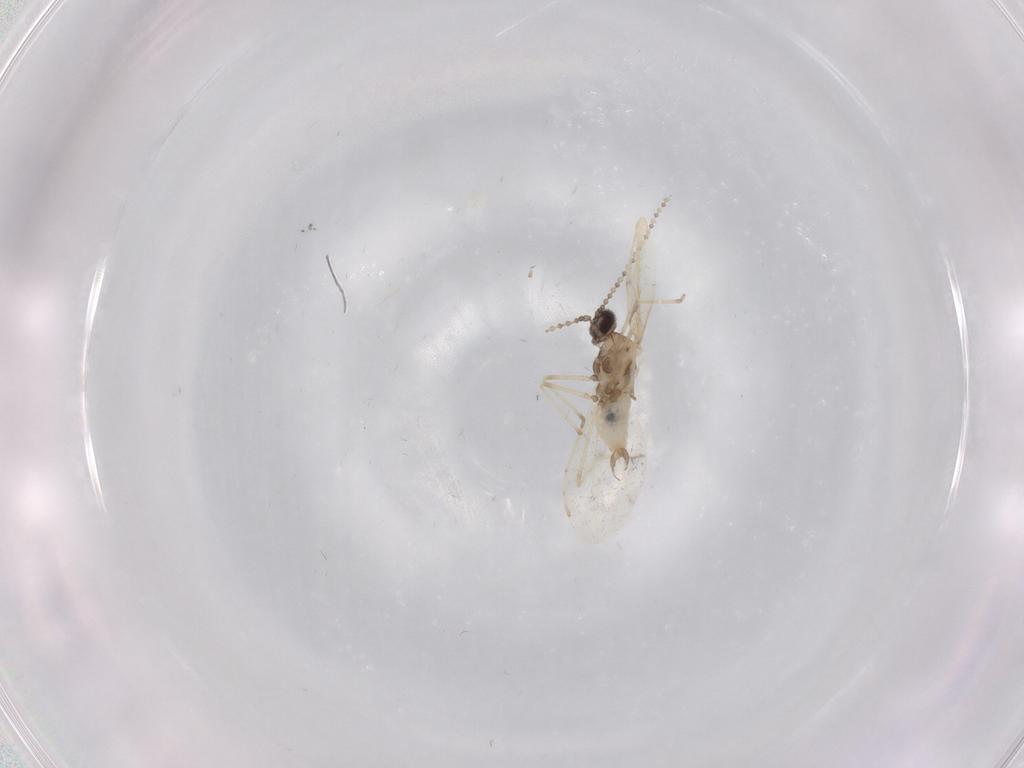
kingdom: Animalia
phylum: Arthropoda
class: Insecta
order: Diptera
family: Cecidomyiidae
